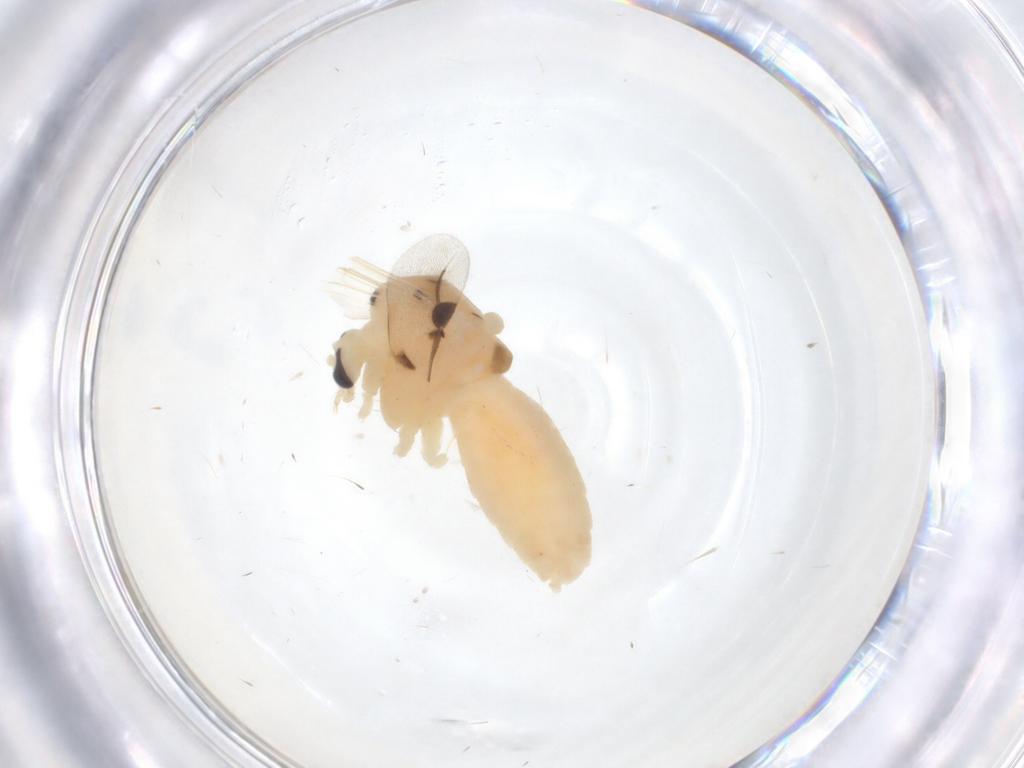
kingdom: Animalia
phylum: Arthropoda
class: Insecta
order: Diptera
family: Chironomidae
